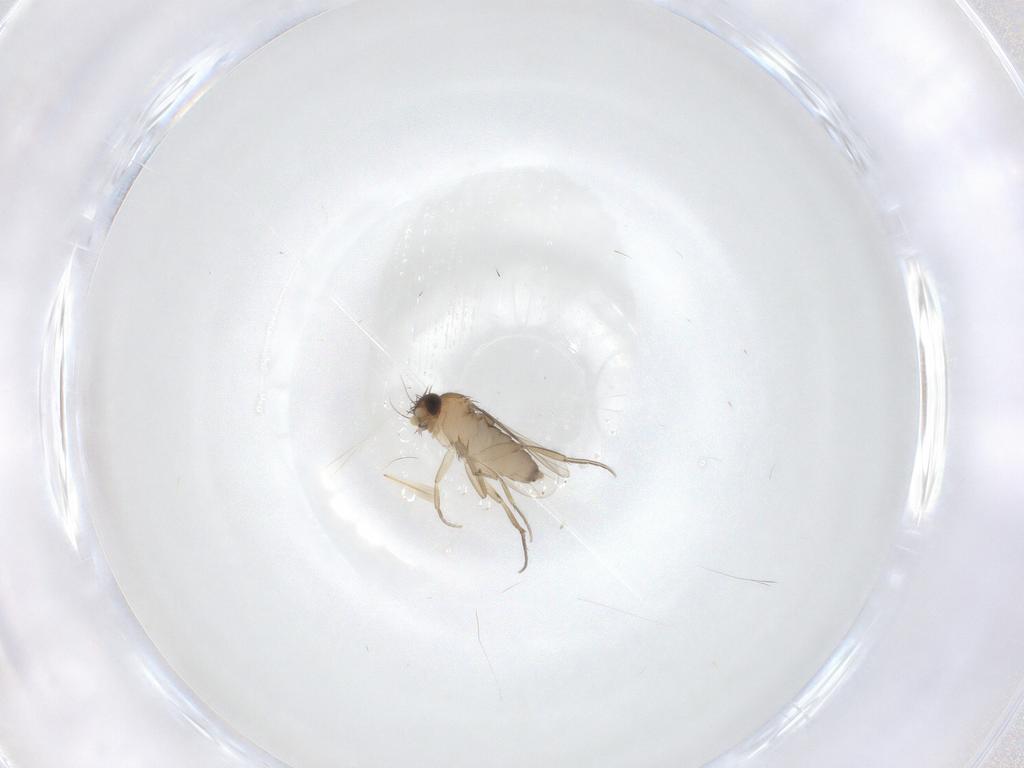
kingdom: Animalia
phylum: Arthropoda
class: Insecta
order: Diptera
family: Phoridae
